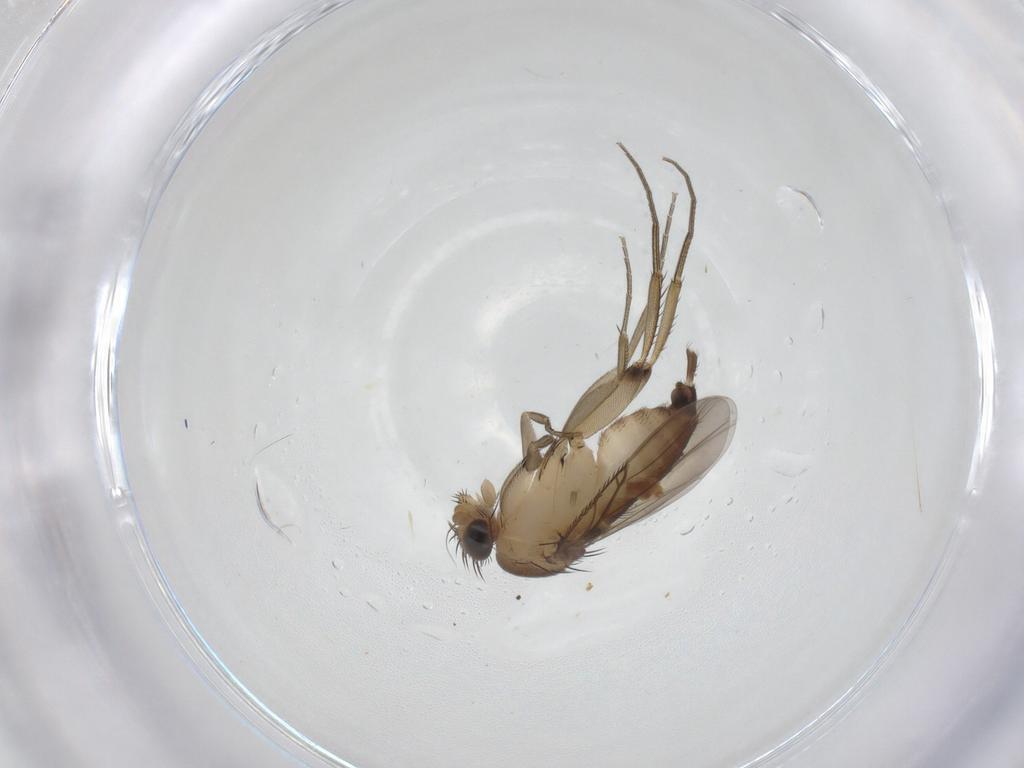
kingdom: Animalia
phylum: Arthropoda
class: Insecta
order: Diptera
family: Phoridae
